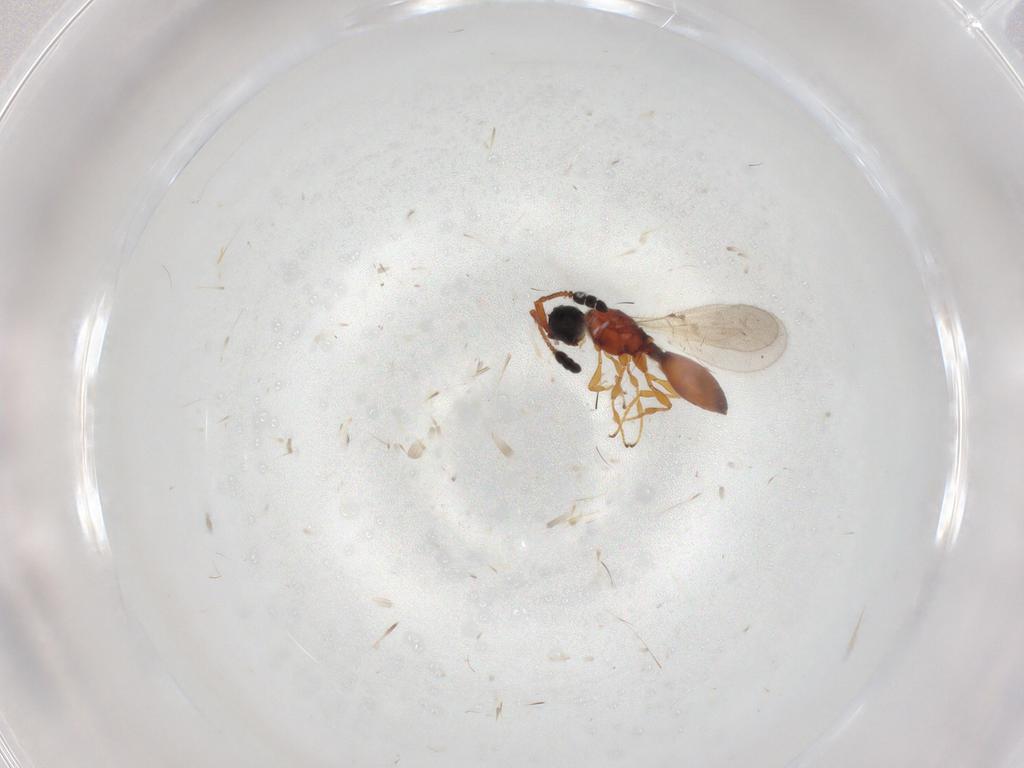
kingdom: Animalia
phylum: Arthropoda
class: Insecta
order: Hymenoptera
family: Diapriidae
